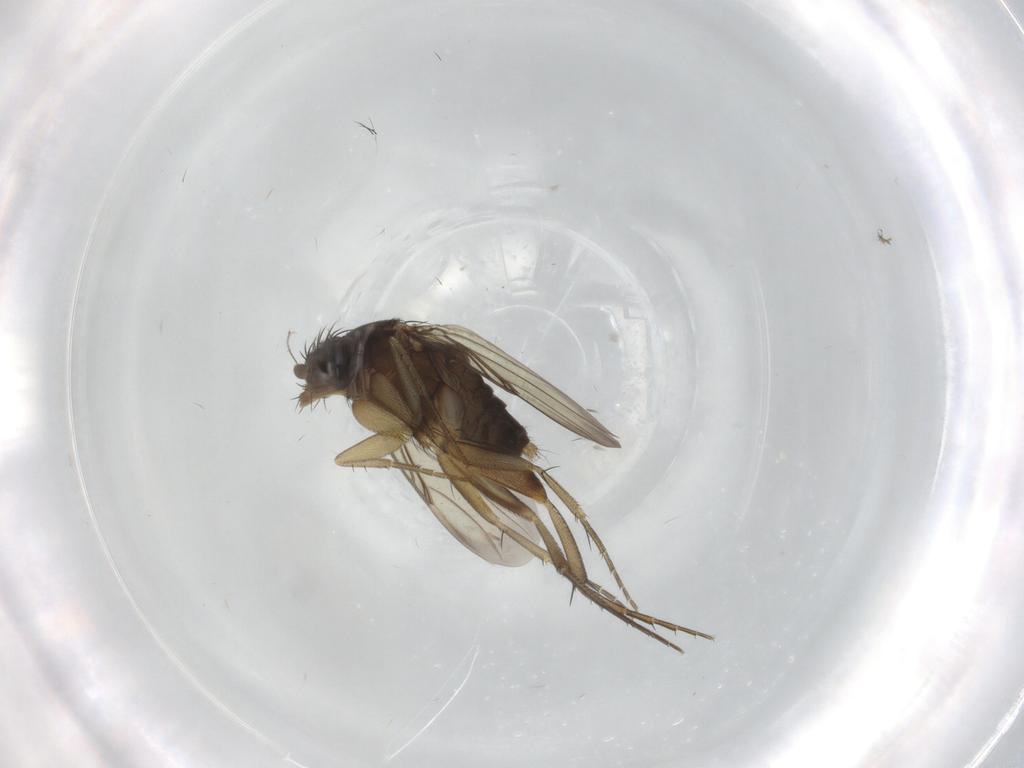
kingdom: Animalia
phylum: Arthropoda
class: Insecta
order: Diptera
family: Phoridae
